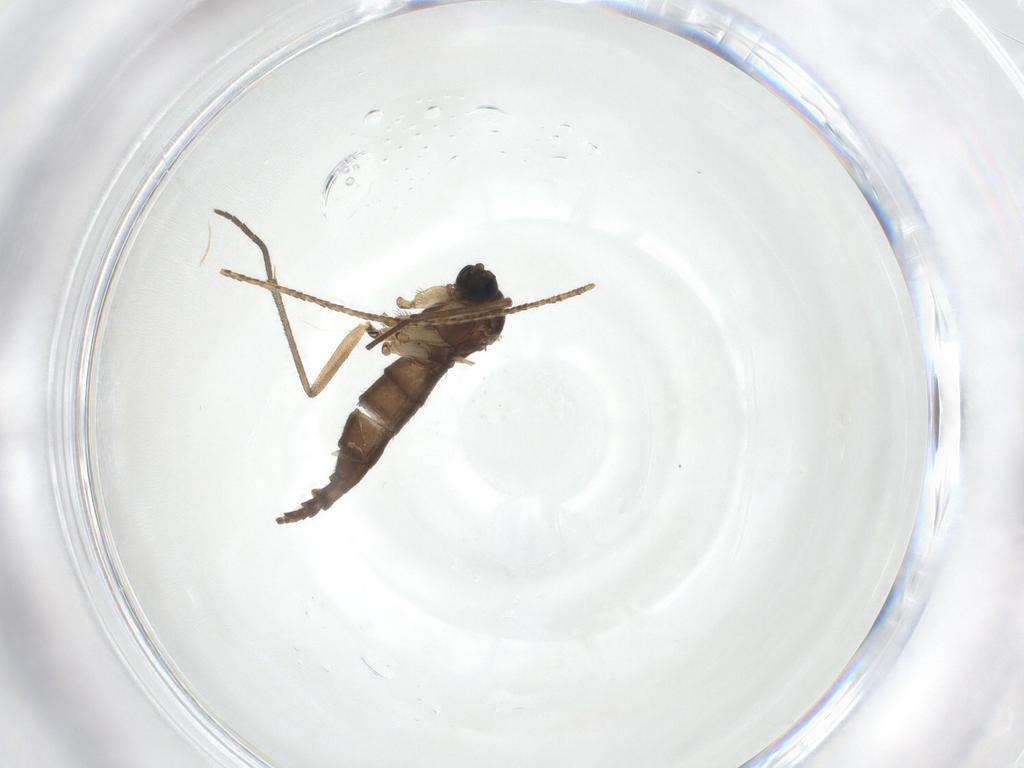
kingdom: Animalia
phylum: Arthropoda
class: Insecta
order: Diptera
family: Sciaridae
